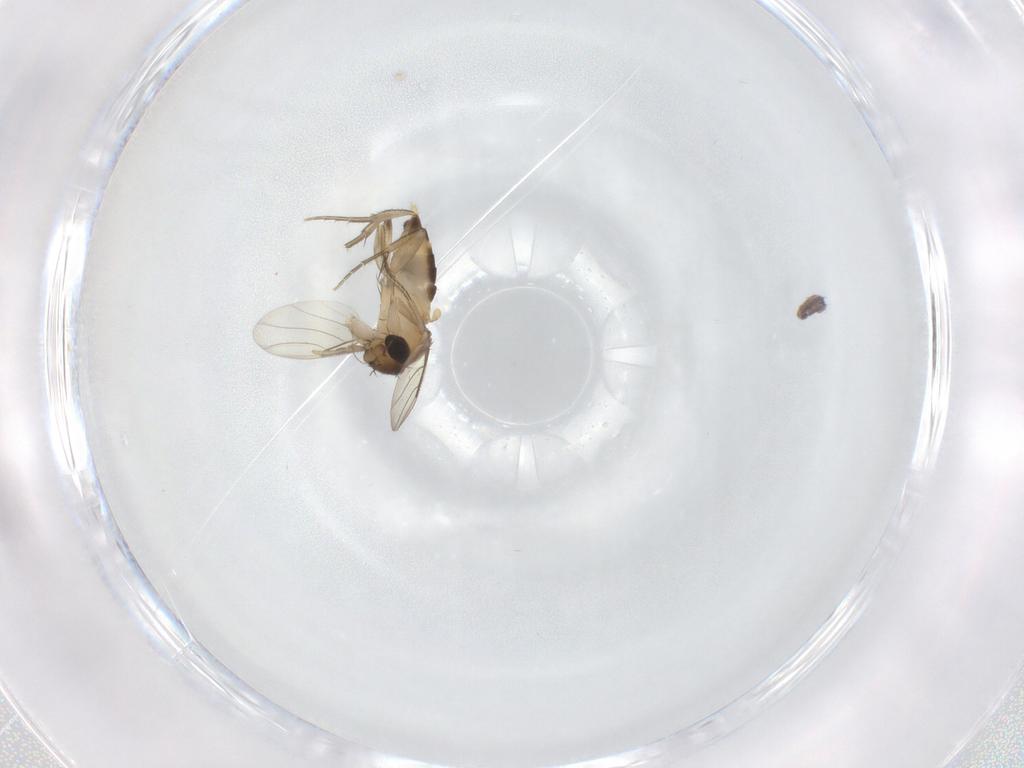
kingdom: Animalia
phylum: Arthropoda
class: Insecta
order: Diptera
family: Phoridae
